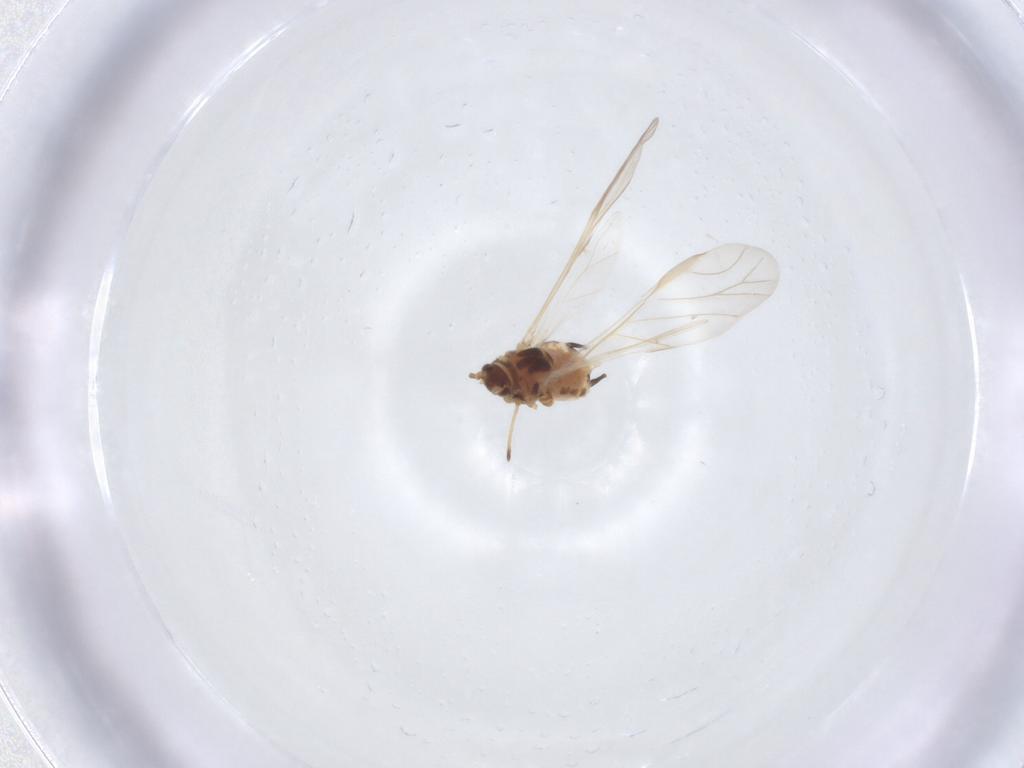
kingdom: Animalia
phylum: Arthropoda
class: Insecta
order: Hemiptera
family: Aphididae
